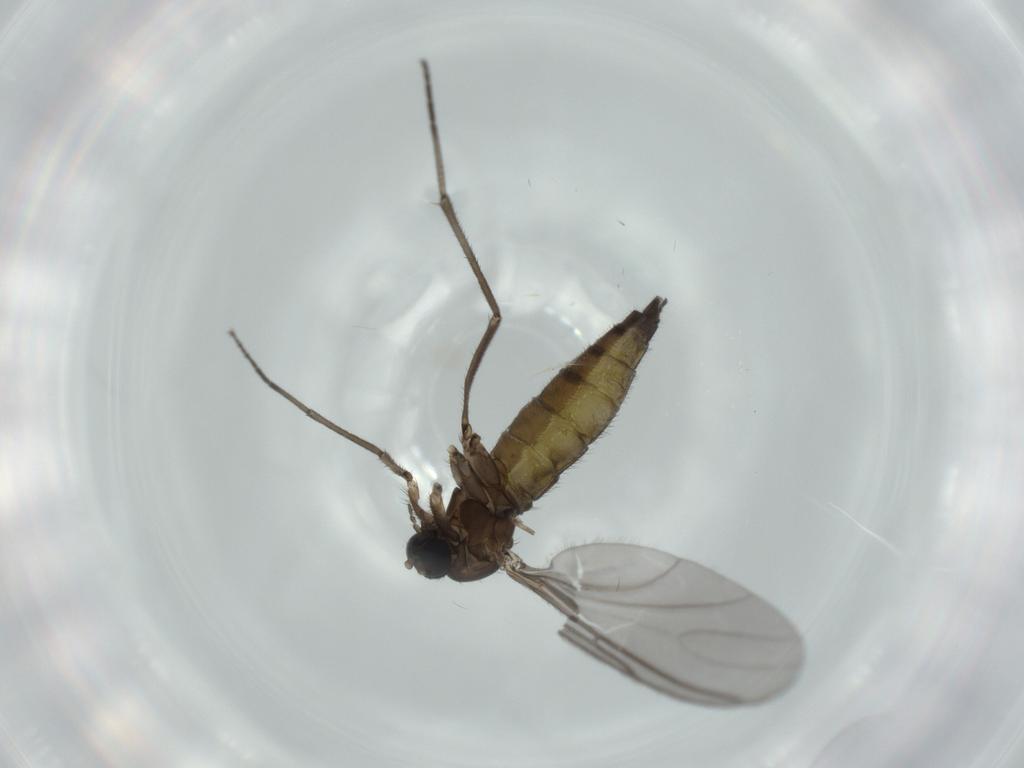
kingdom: Animalia
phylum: Arthropoda
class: Insecta
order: Diptera
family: Sciaridae
